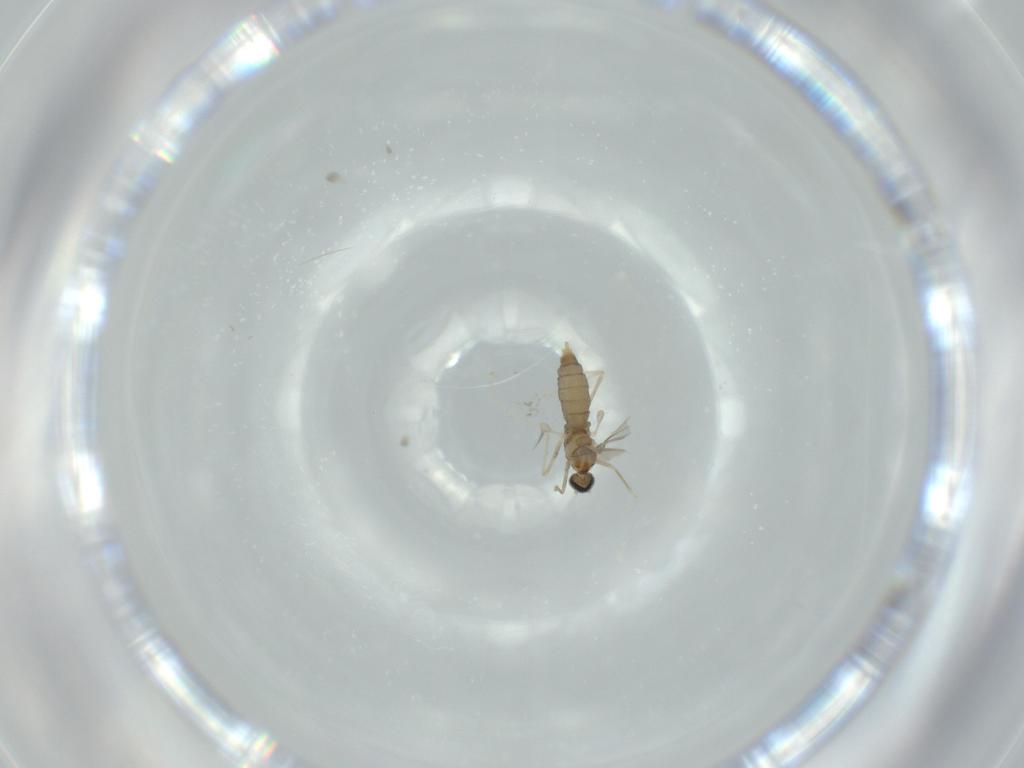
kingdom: Animalia
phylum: Arthropoda
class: Insecta
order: Diptera
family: Cecidomyiidae
